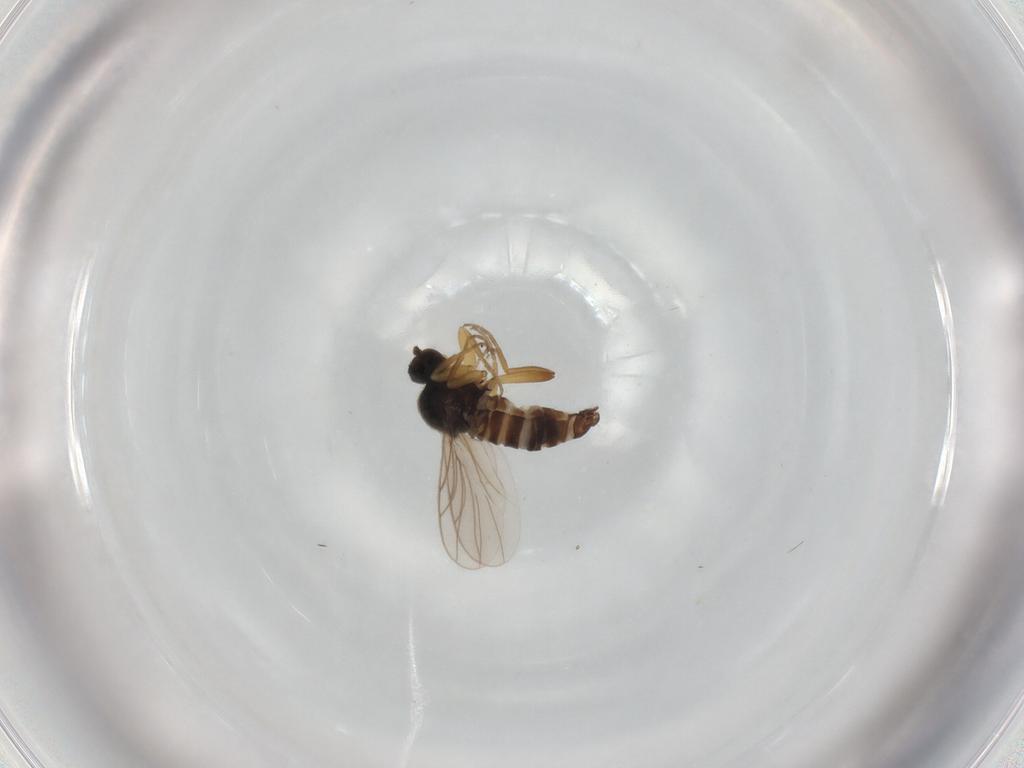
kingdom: Animalia
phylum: Arthropoda
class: Insecta
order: Diptera
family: Hybotidae
